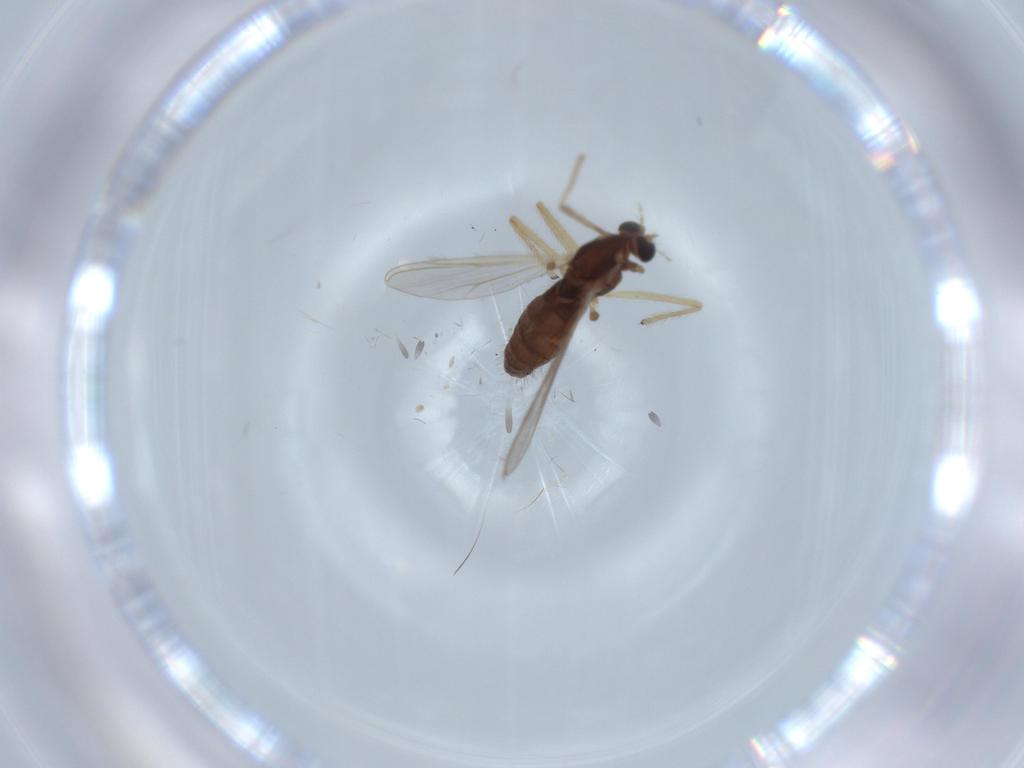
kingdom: Animalia
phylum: Arthropoda
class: Insecta
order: Diptera
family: Chironomidae
